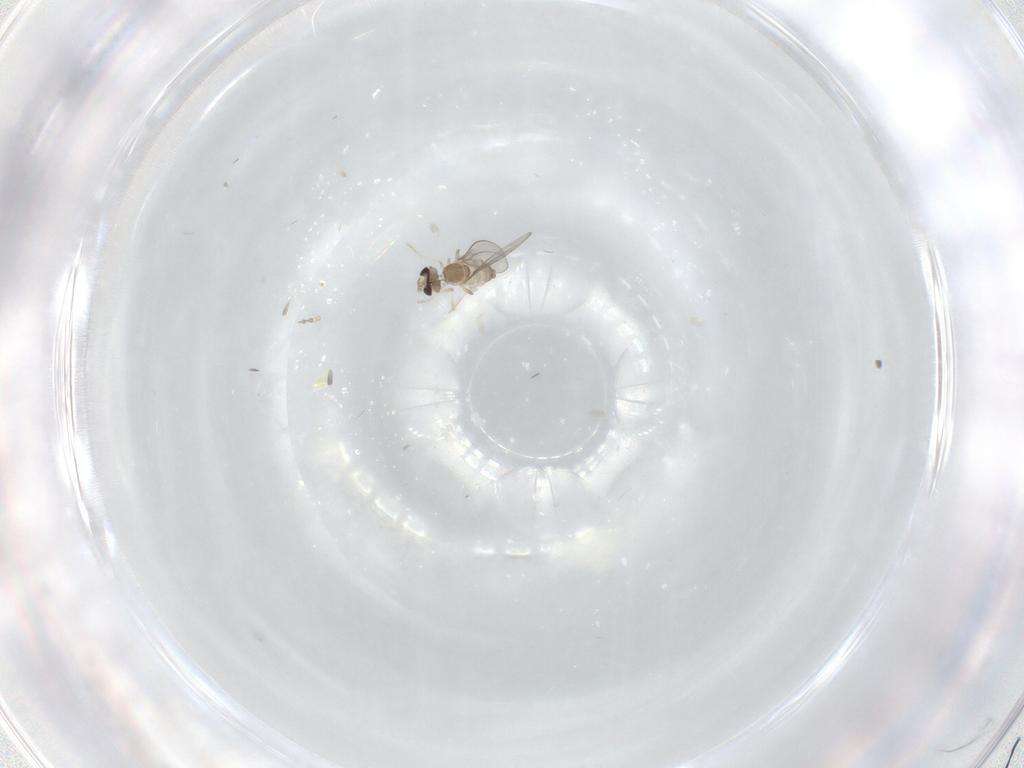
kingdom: Animalia
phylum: Arthropoda
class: Insecta
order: Diptera
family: Cecidomyiidae
